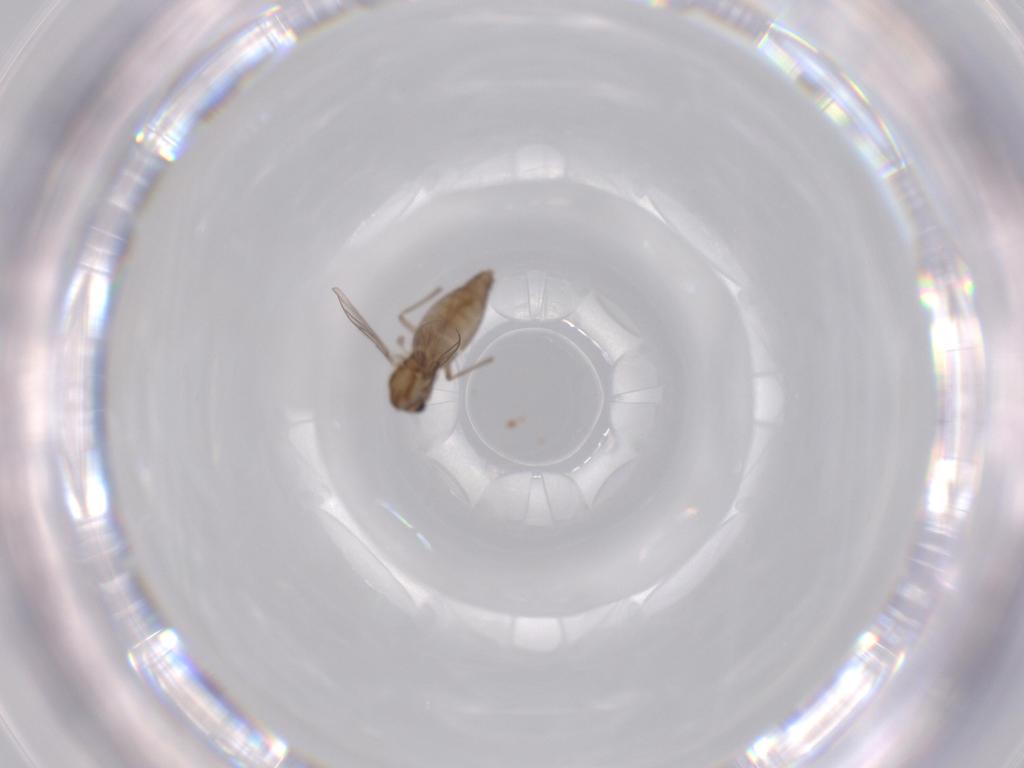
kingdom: Animalia
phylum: Arthropoda
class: Insecta
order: Diptera
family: Chironomidae
